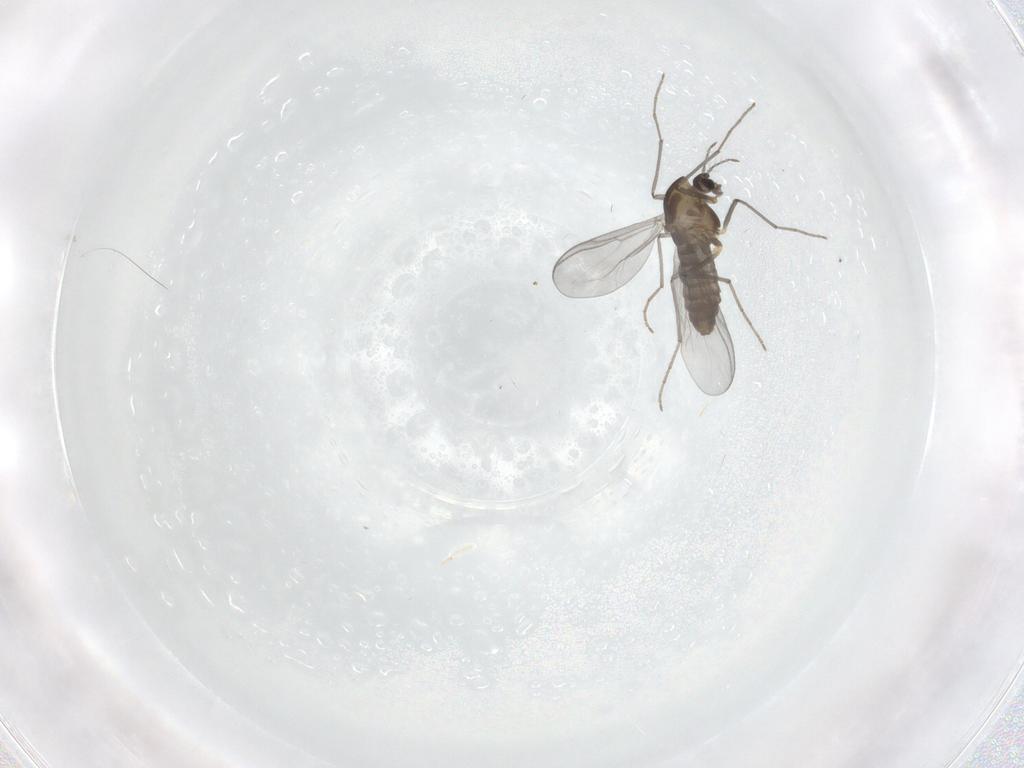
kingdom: Animalia
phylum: Arthropoda
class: Insecta
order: Diptera
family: Chironomidae
